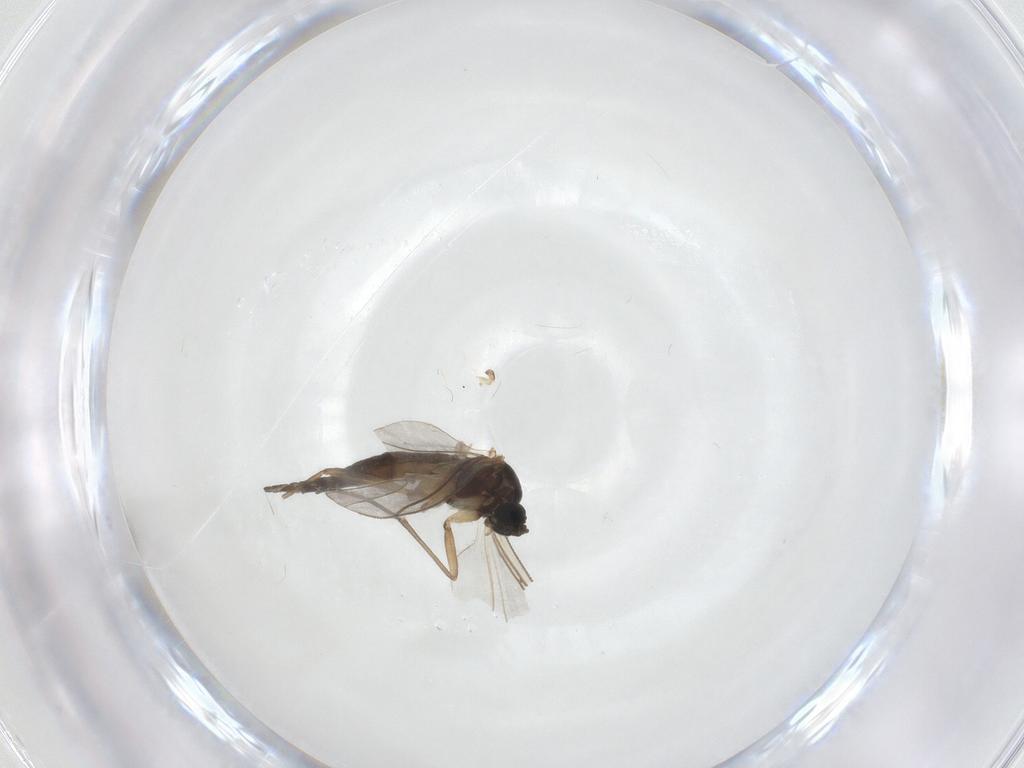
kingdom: Animalia
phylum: Arthropoda
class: Insecta
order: Diptera
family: Sciaridae
